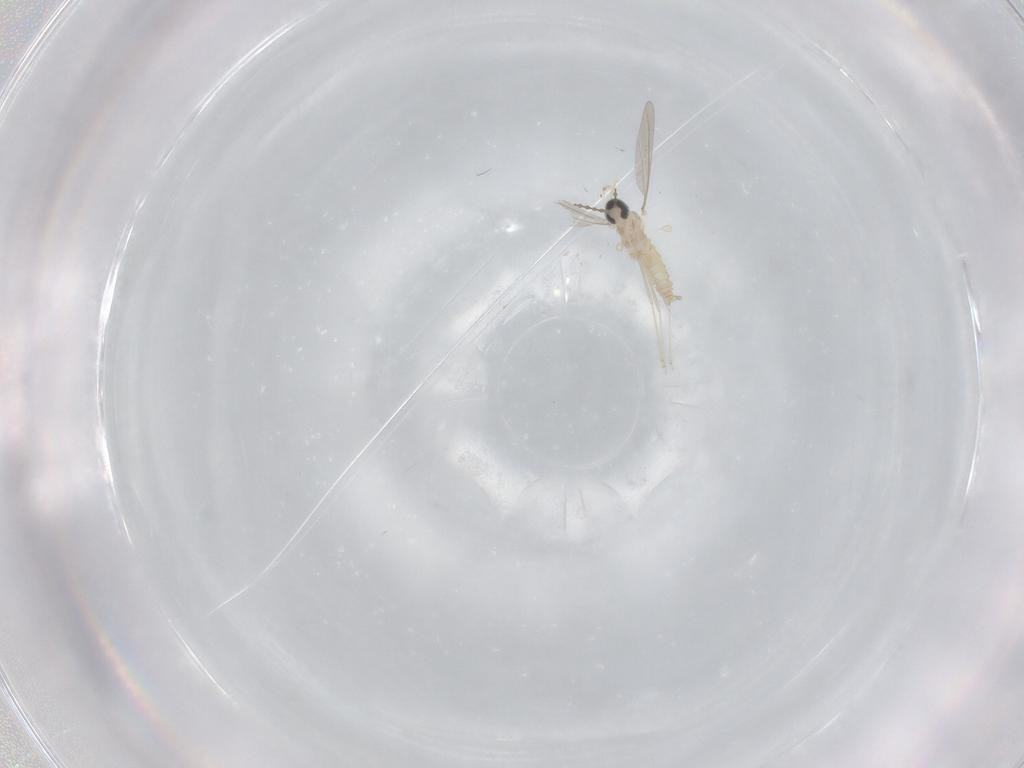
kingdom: Animalia
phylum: Arthropoda
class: Insecta
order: Diptera
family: Cecidomyiidae
